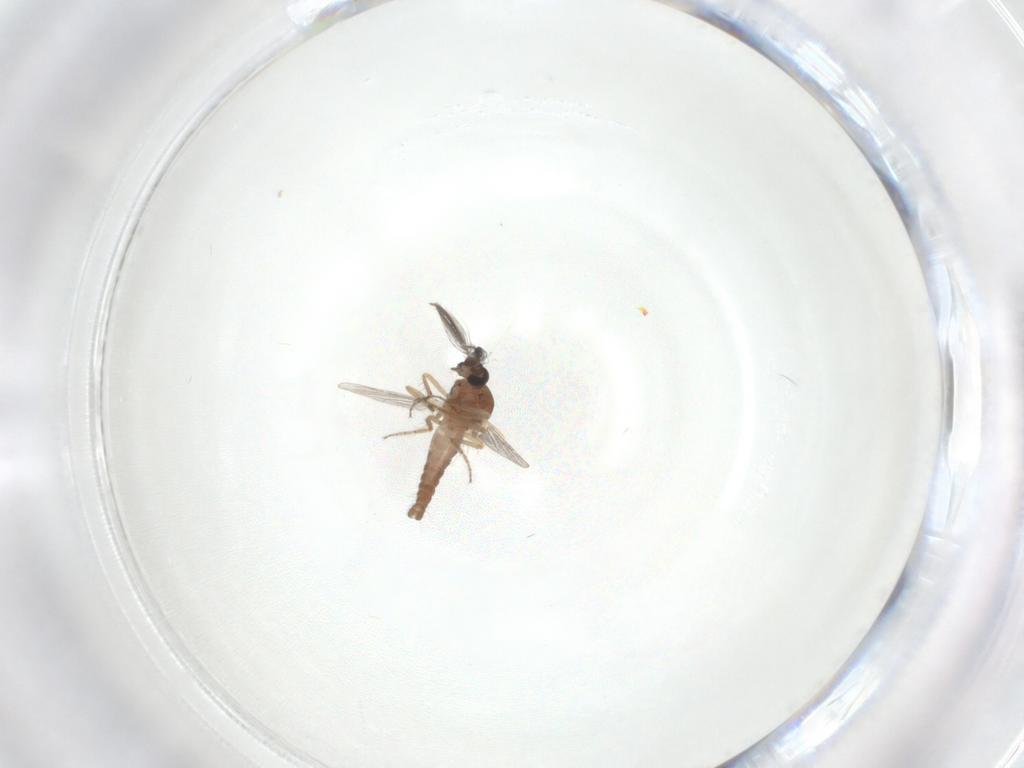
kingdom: Animalia
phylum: Arthropoda
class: Insecta
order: Diptera
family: Ceratopogonidae
